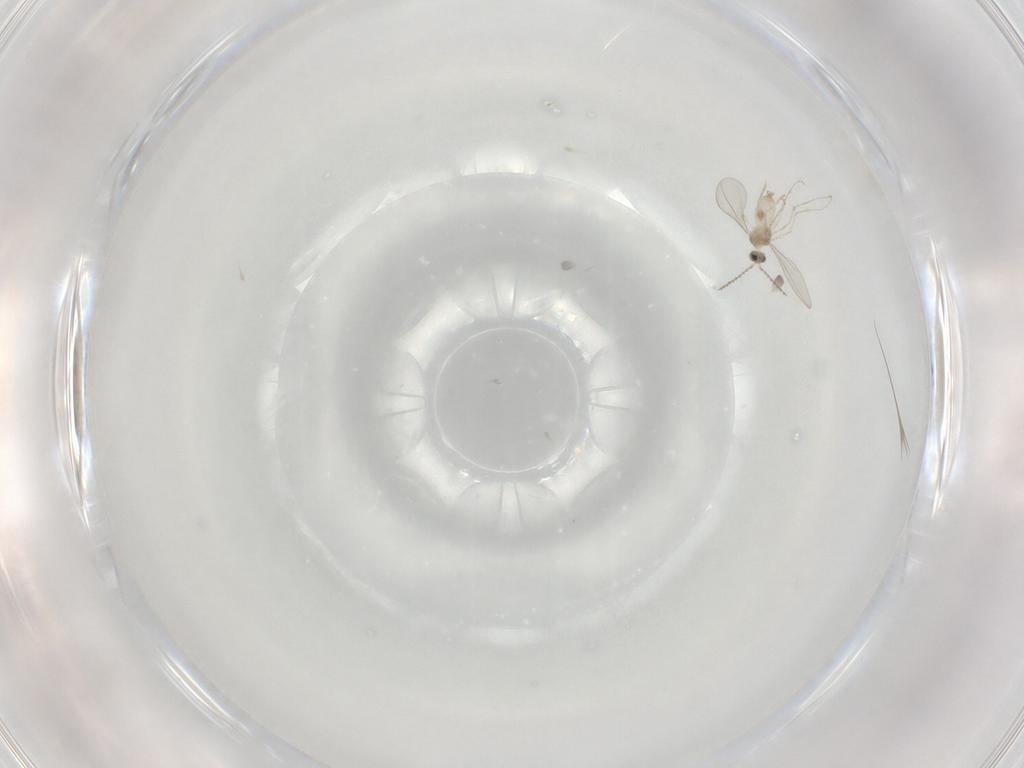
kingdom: Animalia
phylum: Arthropoda
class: Insecta
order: Diptera
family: Cecidomyiidae
